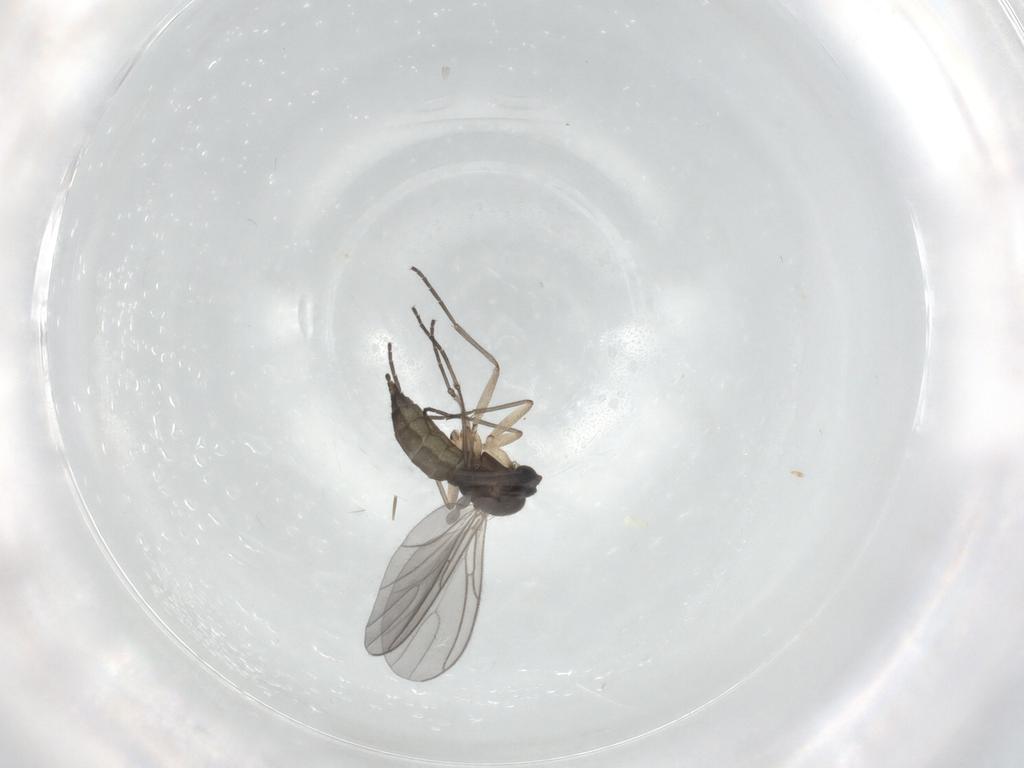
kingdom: Animalia
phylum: Arthropoda
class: Insecta
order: Diptera
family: Sciaridae
